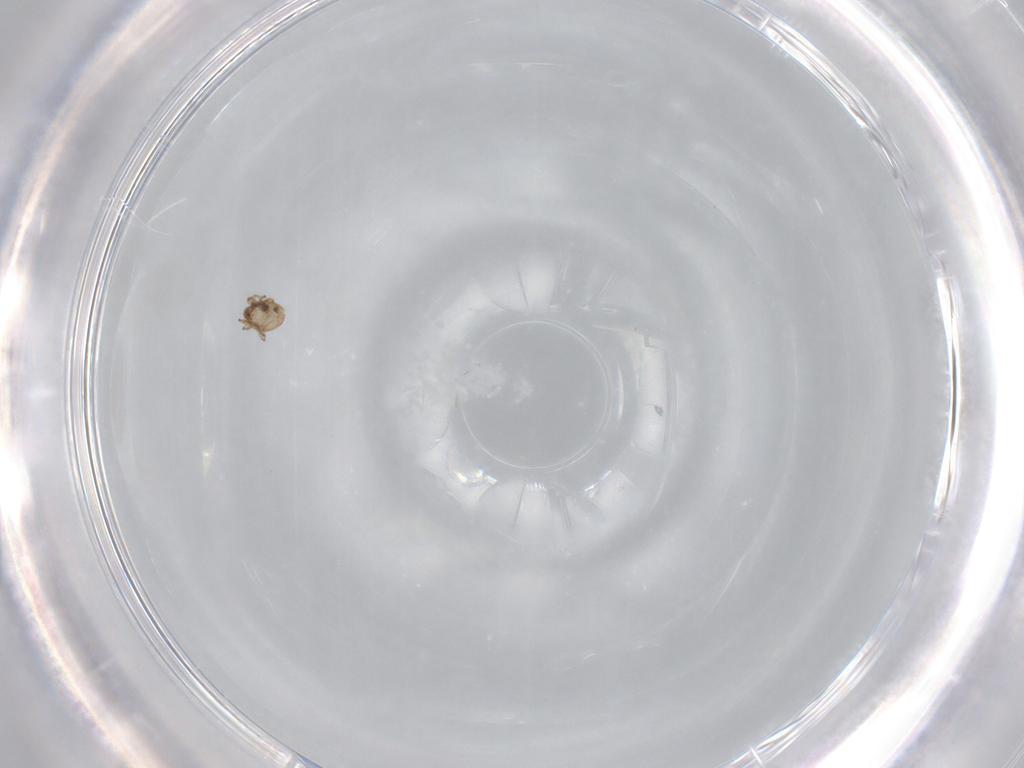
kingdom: Animalia
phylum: Arthropoda
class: Arachnida
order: Sarcoptiformes
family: Oribatulidae
